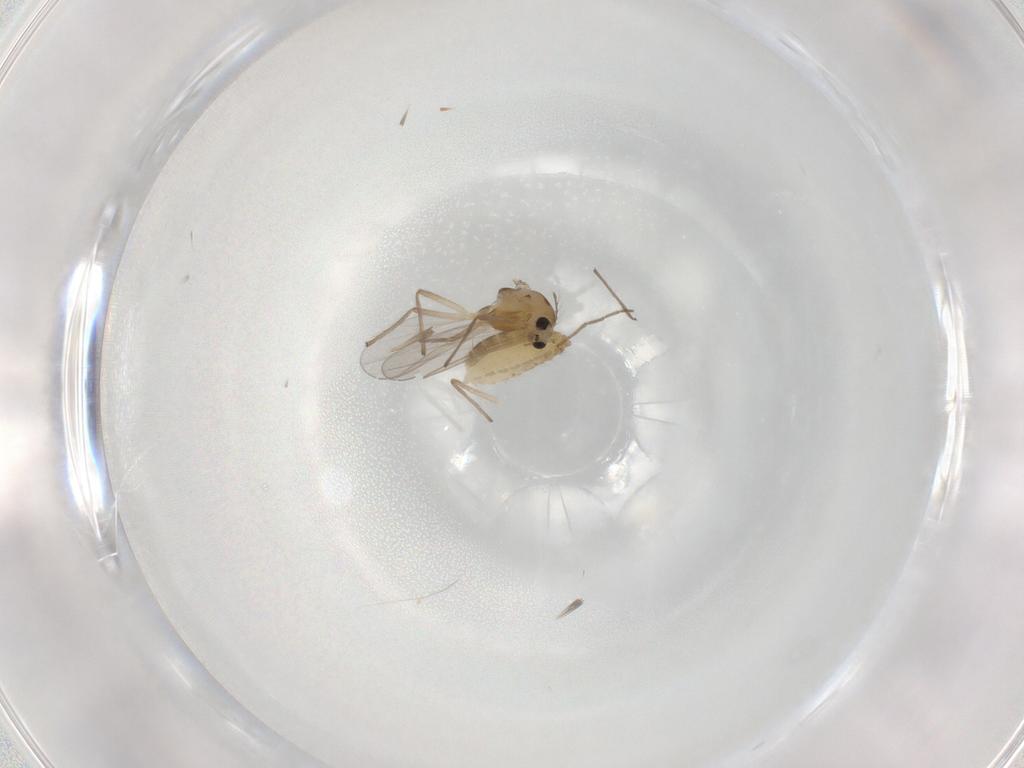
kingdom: Animalia
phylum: Arthropoda
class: Insecta
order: Diptera
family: Chironomidae
